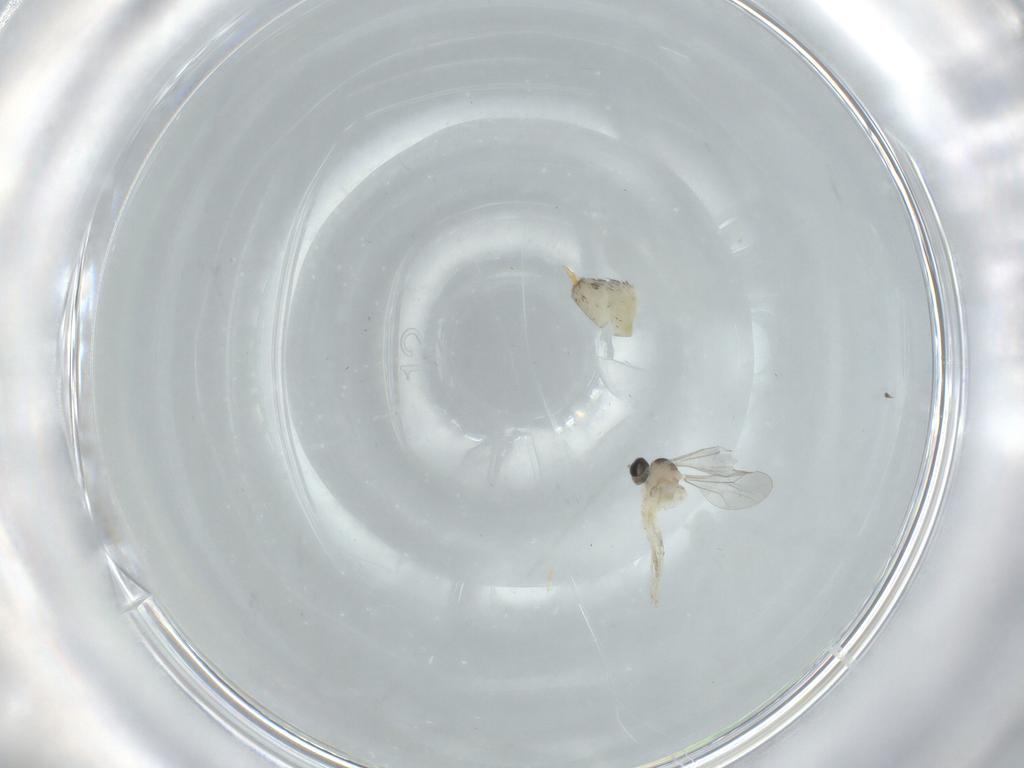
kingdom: Animalia
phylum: Arthropoda
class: Insecta
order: Diptera
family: Cecidomyiidae
